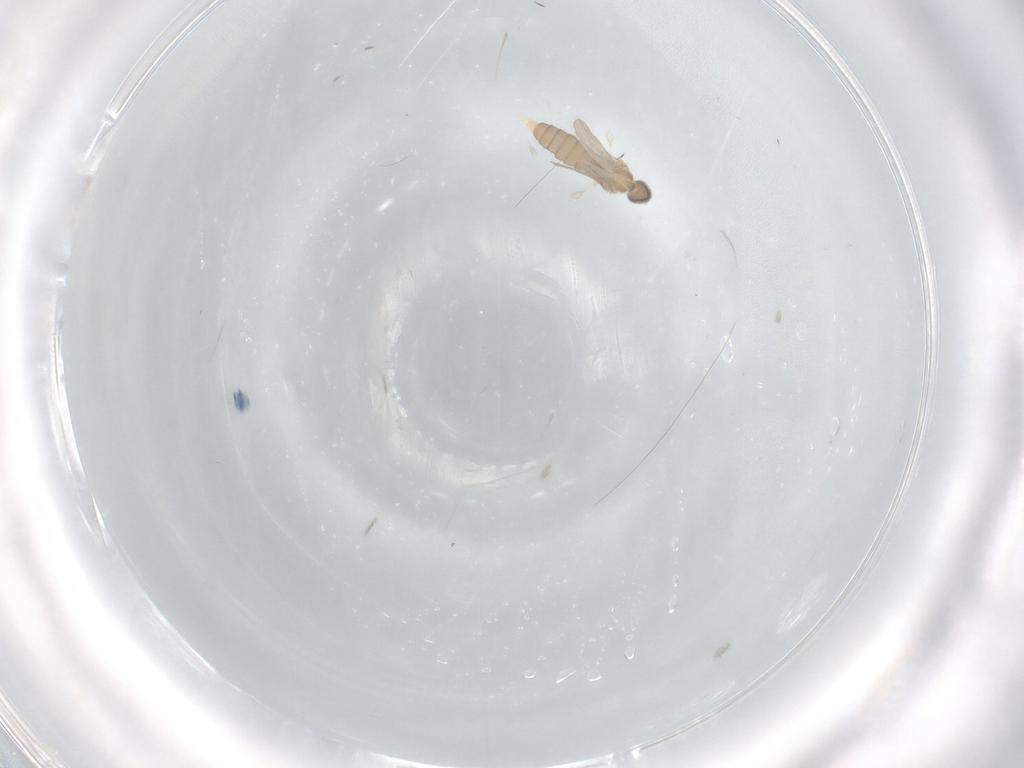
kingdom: Animalia
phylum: Arthropoda
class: Insecta
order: Diptera
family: Cecidomyiidae
